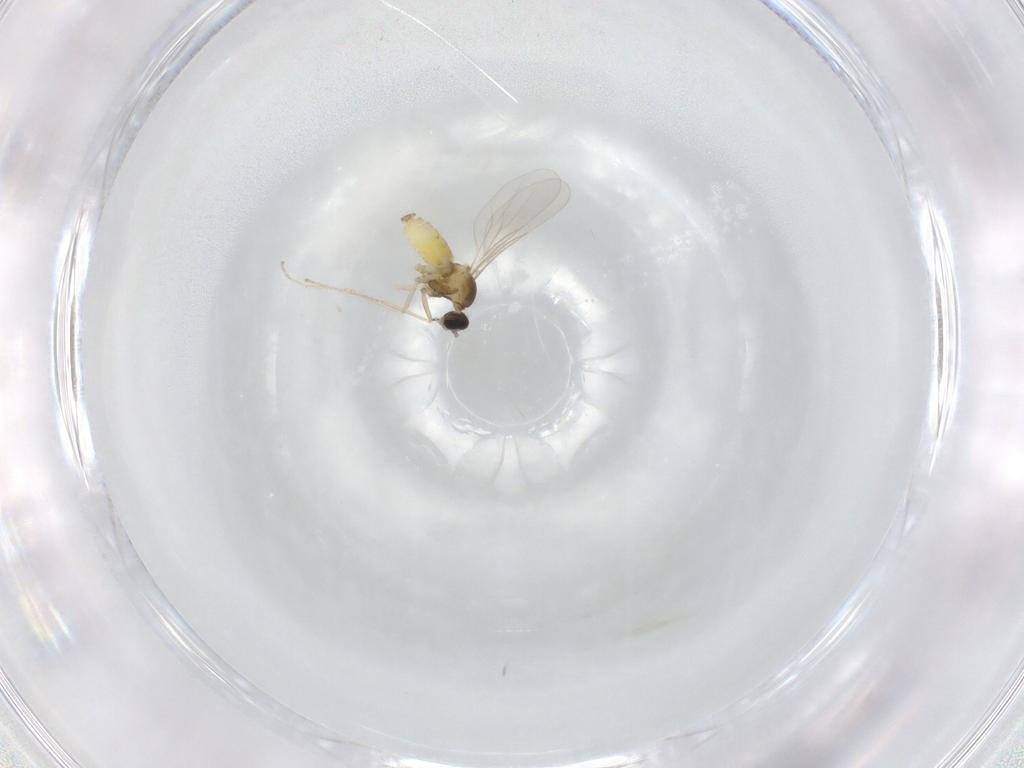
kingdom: Animalia
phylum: Arthropoda
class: Insecta
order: Diptera
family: Cecidomyiidae
